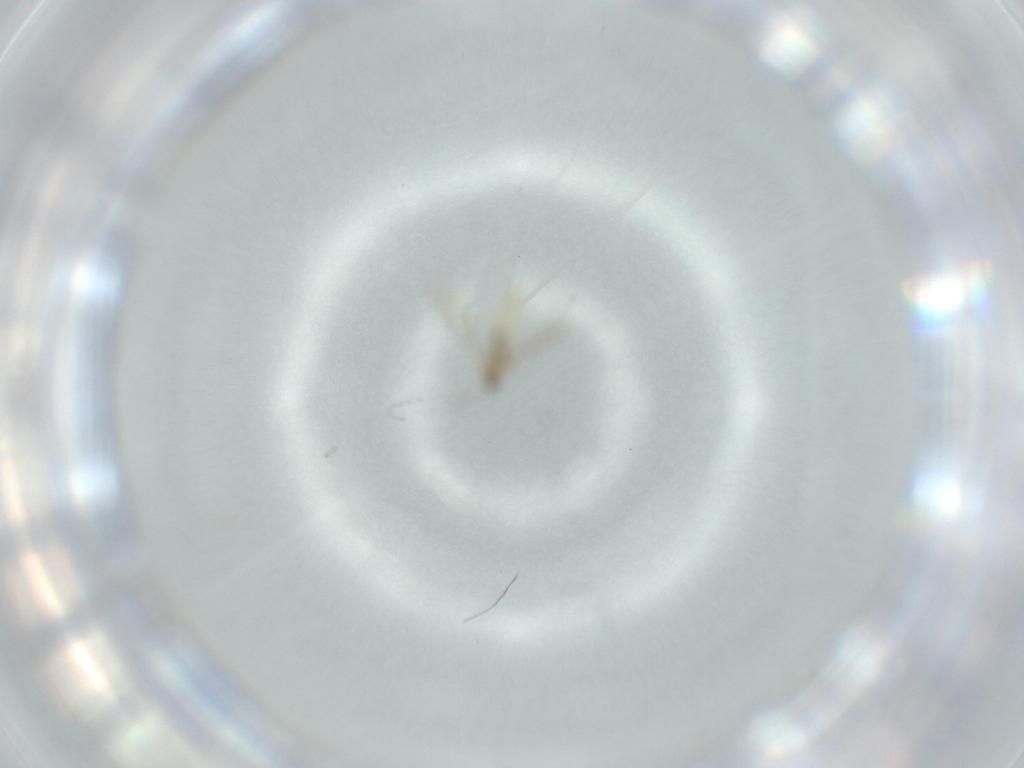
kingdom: Animalia
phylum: Arthropoda
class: Insecta
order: Diptera
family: Cecidomyiidae
